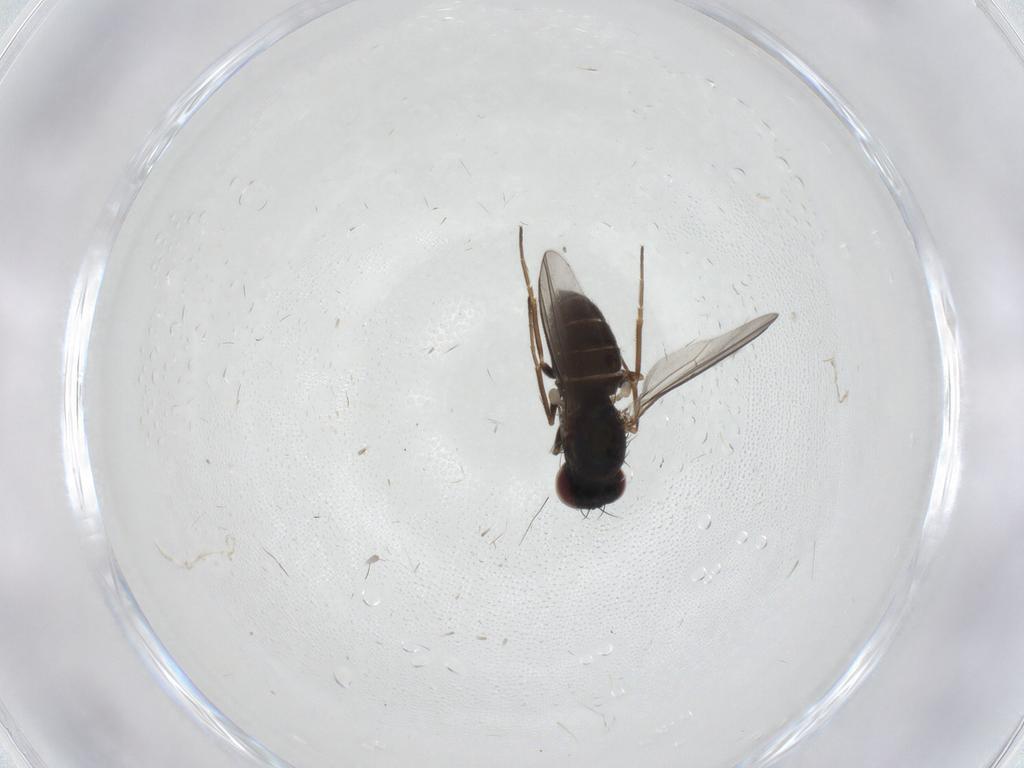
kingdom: Animalia
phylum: Arthropoda
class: Insecta
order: Diptera
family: Dolichopodidae
